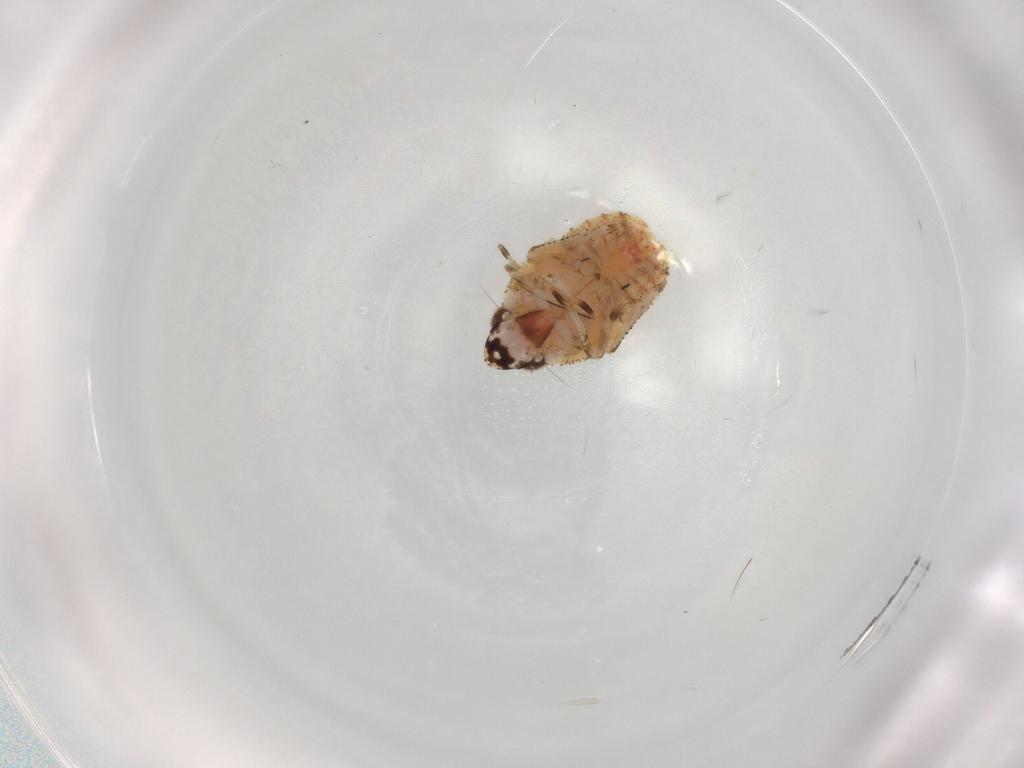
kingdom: Animalia
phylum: Arthropoda
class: Insecta
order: Hemiptera
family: Gengidae
